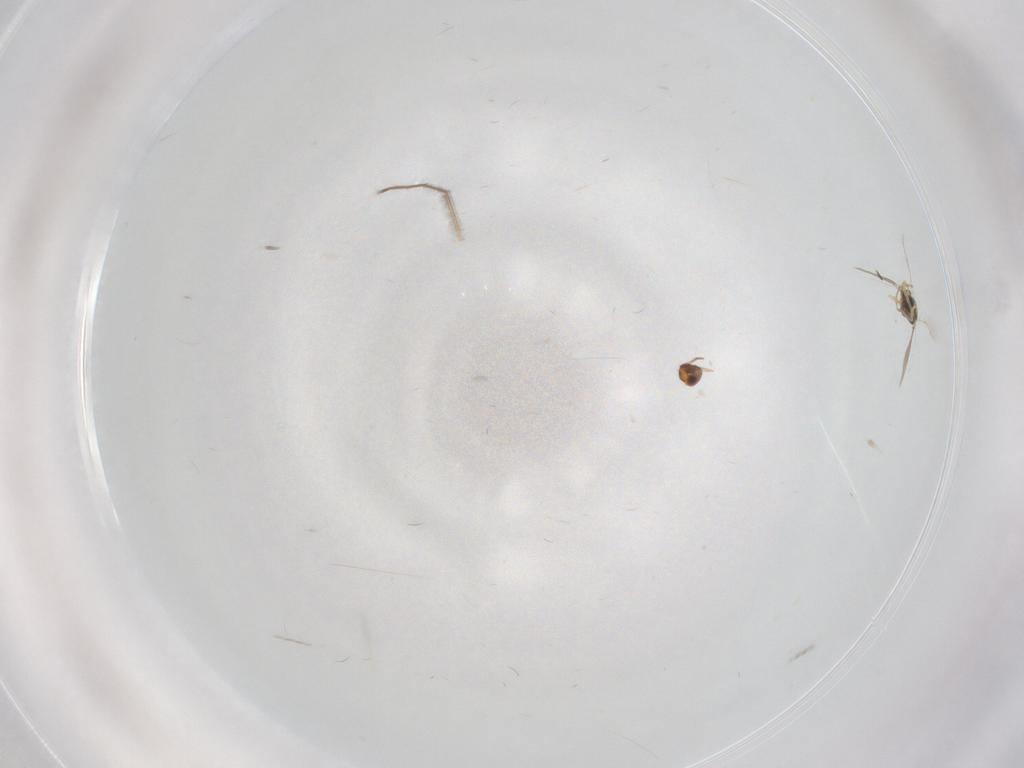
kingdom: Animalia
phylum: Arthropoda
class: Insecta
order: Hymenoptera
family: Aphelinidae
